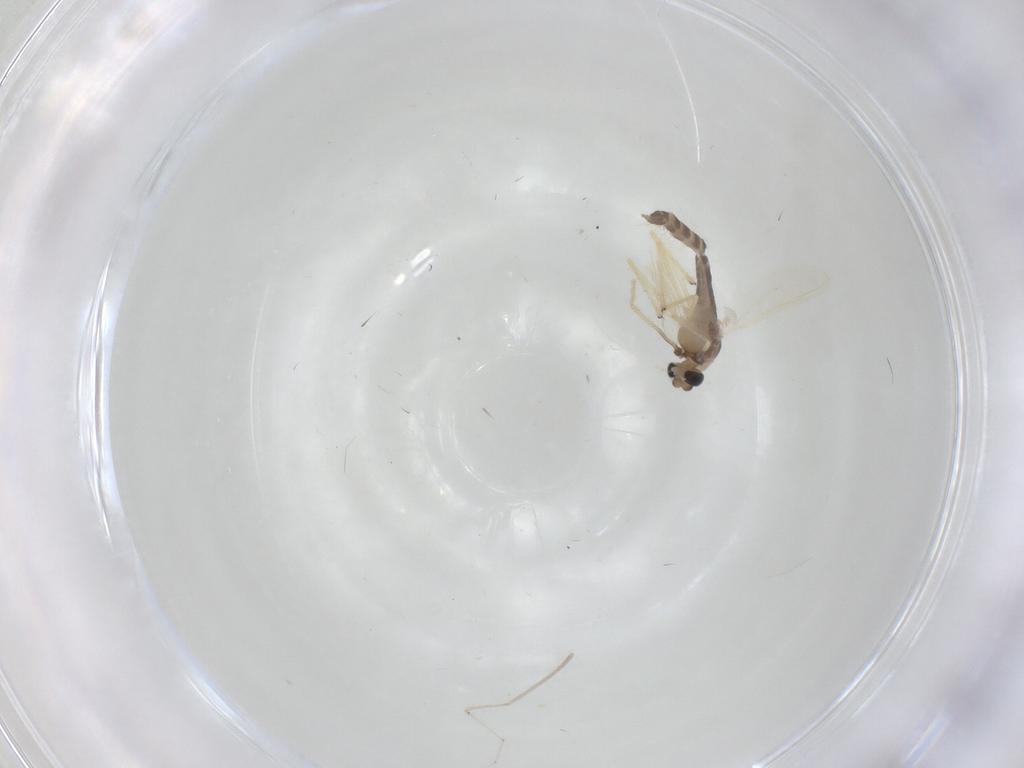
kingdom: Animalia
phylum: Arthropoda
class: Insecta
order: Diptera
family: Chironomidae
